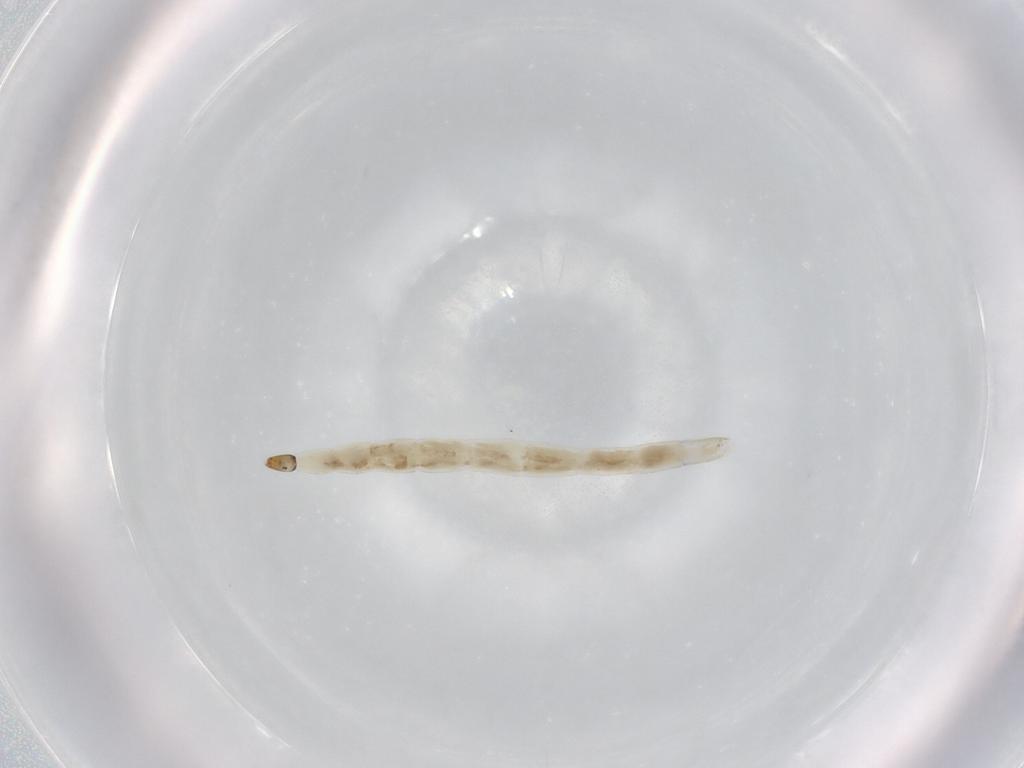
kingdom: Animalia
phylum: Arthropoda
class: Insecta
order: Diptera
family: Ceratopogonidae
